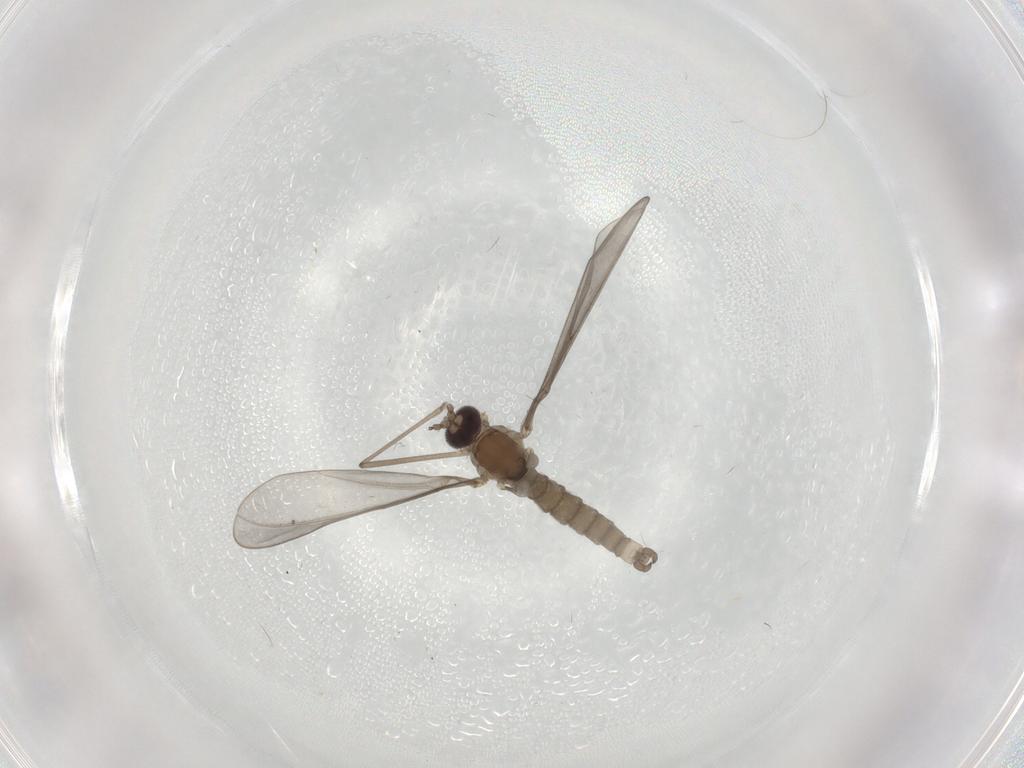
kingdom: Animalia
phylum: Arthropoda
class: Insecta
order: Diptera
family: Cecidomyiidae
